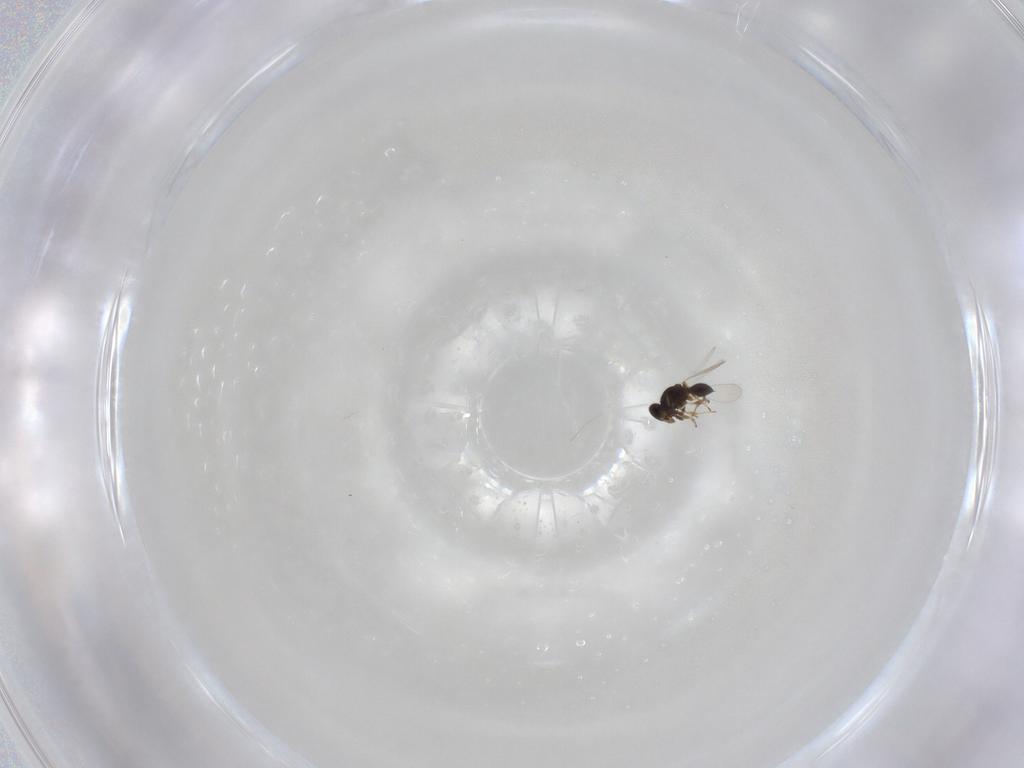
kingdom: Animalia
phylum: Arthropoda
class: Insecta
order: Hymenoptera
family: Platygastridae
